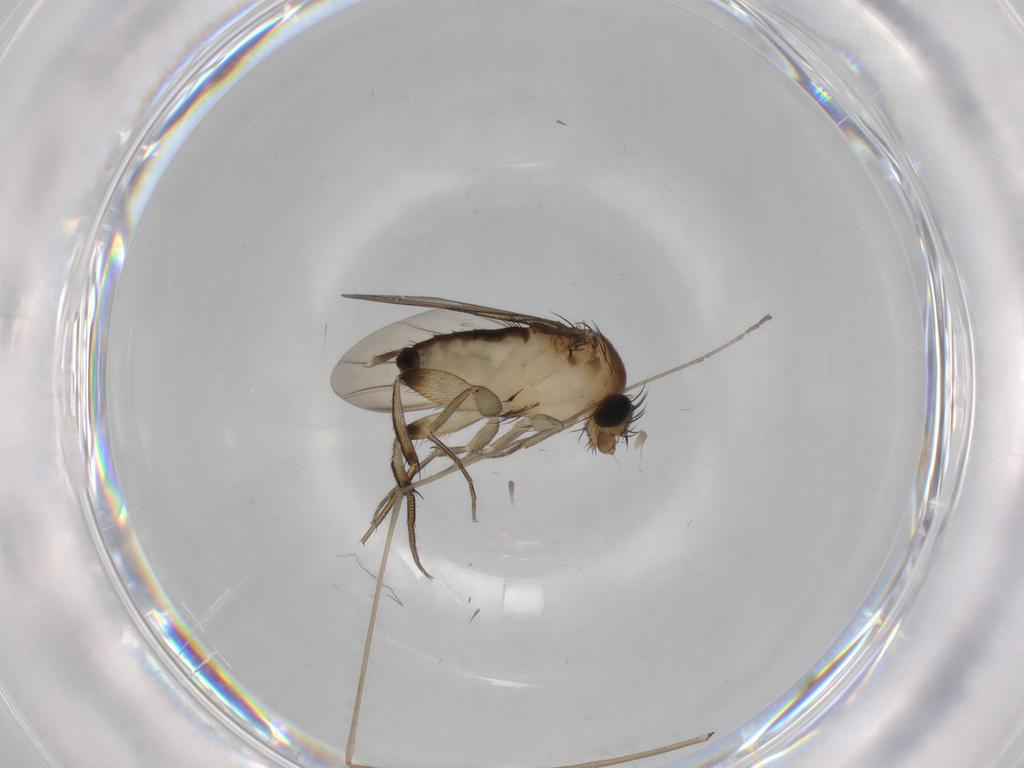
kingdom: Animalia
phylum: Arthropoda
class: Insecta
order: Diptera
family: Phoridae
